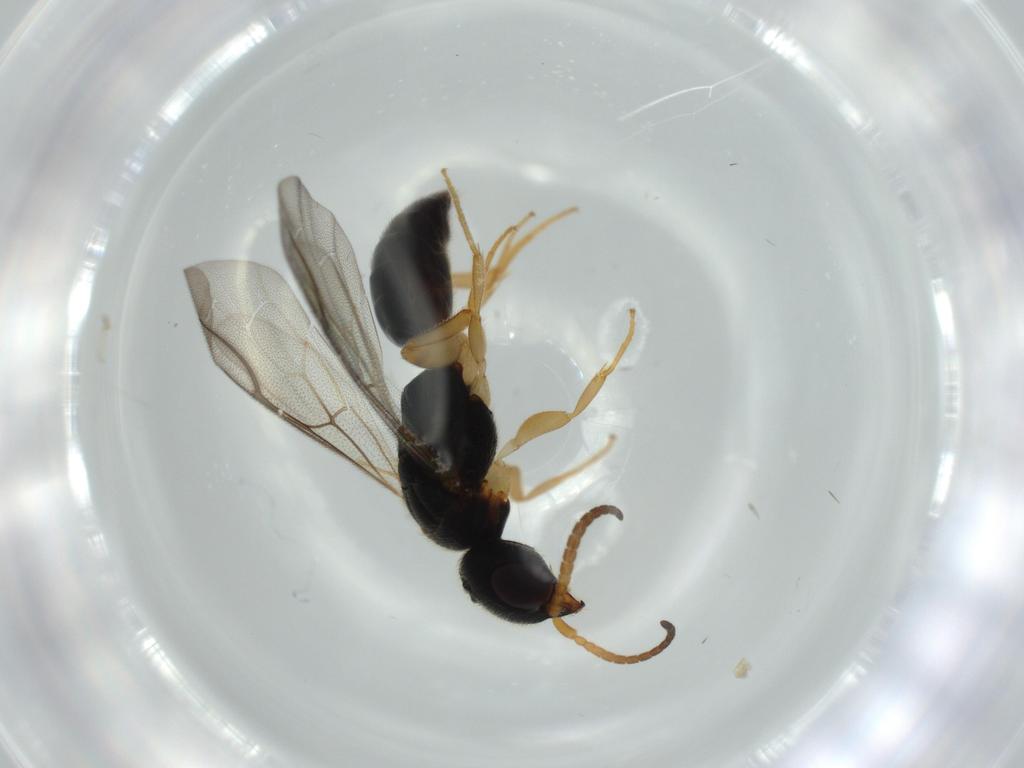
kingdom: Animalia
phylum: Arthropoda
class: Insecta
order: Hymenoptera
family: Bethylidae
